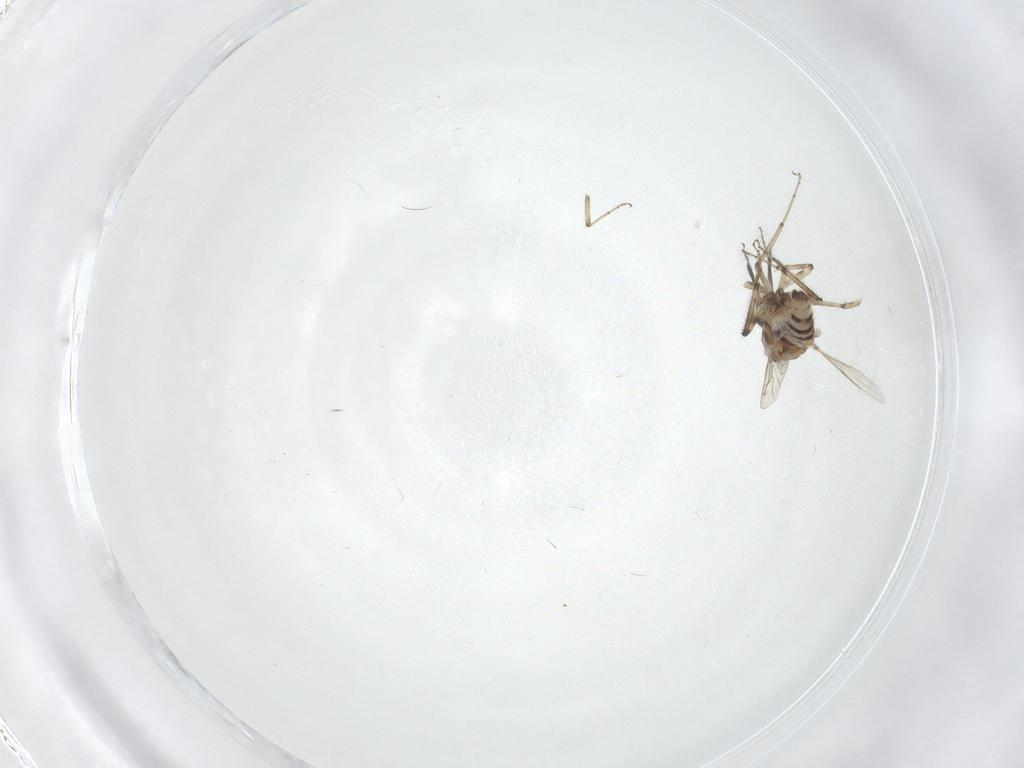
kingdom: Animalia
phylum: Arthropoda
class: Insecta
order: Diptera
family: Ceratopogonidae
